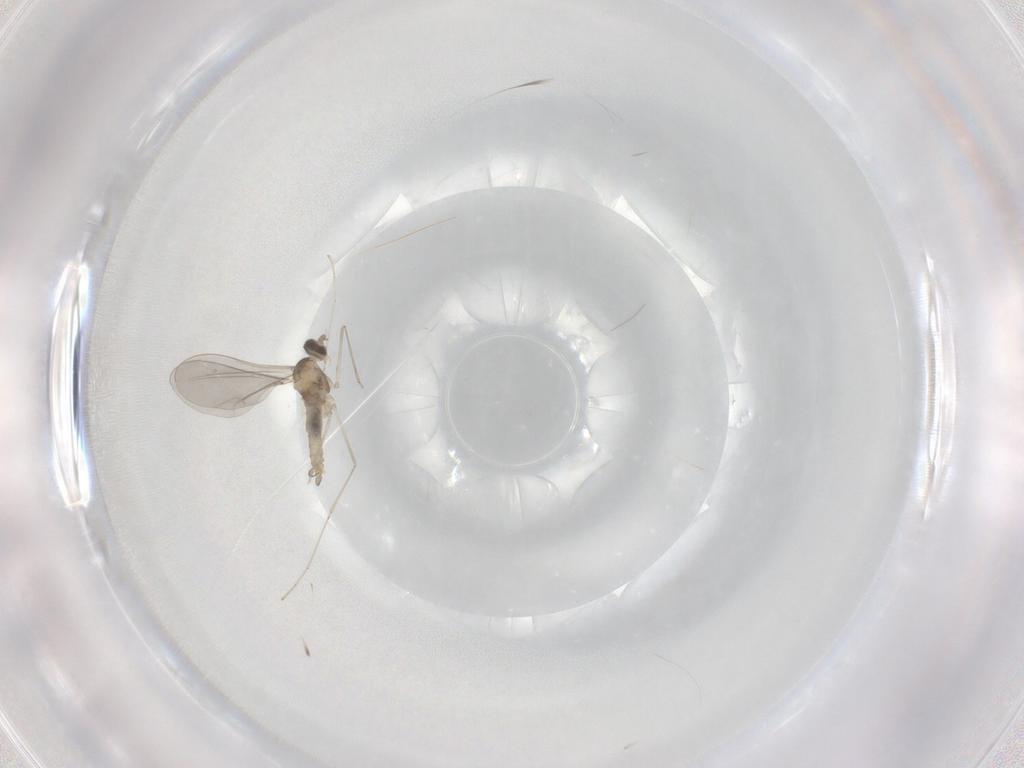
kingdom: Animalia
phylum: Arthropoda
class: Insecta
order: Diptera
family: Cecidomyiidae
